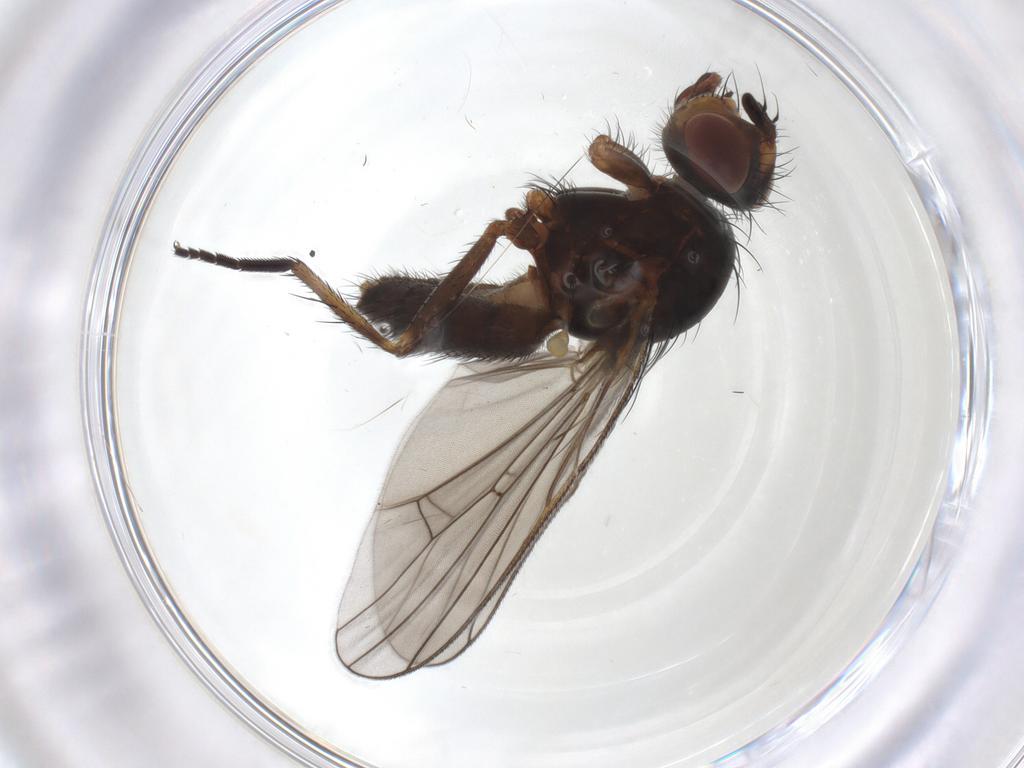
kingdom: Animalia
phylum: Arthropoda
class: Insecta
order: Diptera
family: Anthomyiidae
